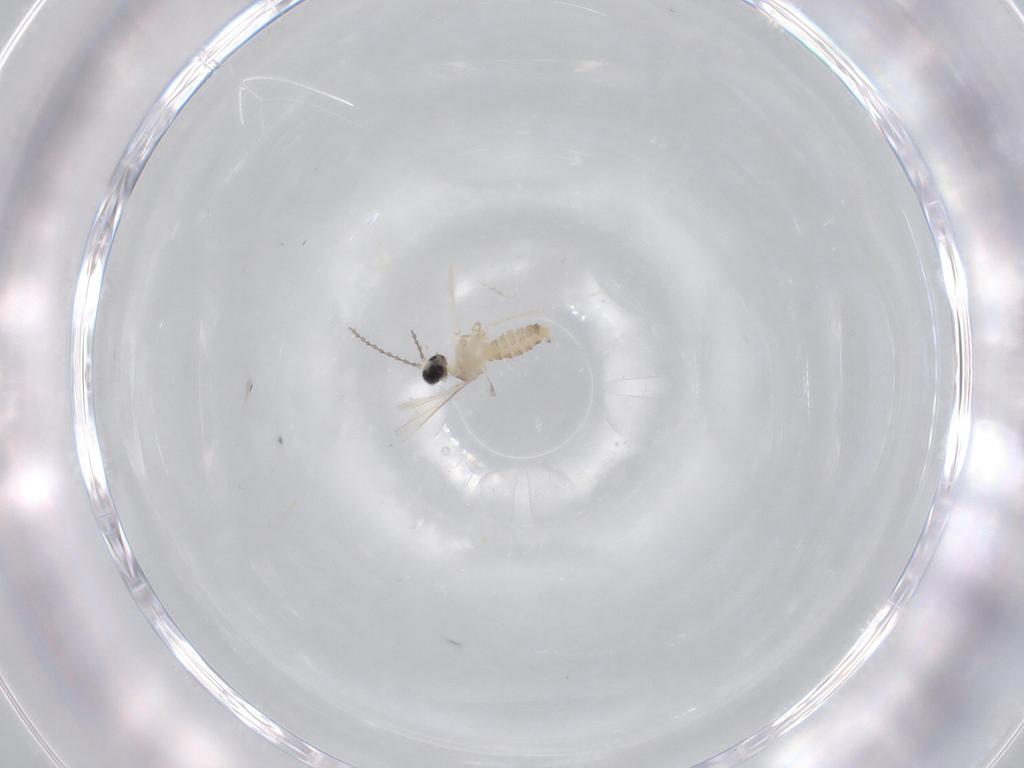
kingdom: Animalia
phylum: Arthropoda
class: Insecta
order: Diptera
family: Cecidomyiidae
